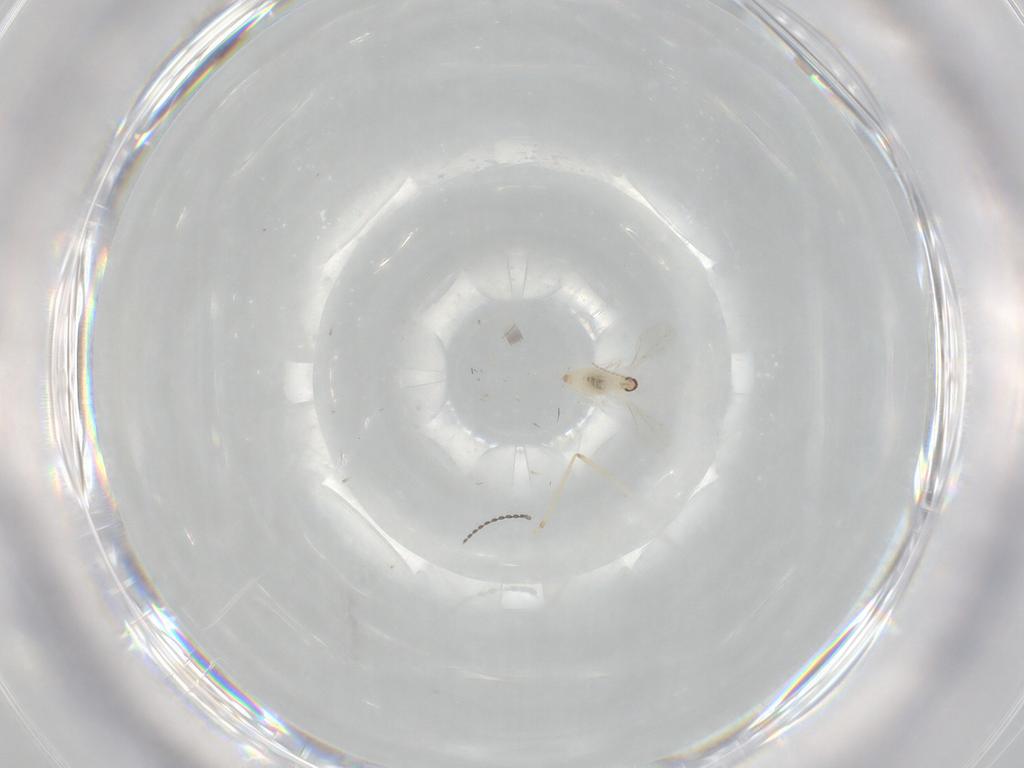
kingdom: Animalia
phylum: Arthropoda
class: Insecta
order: Diptera
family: Cecidomyiidae
